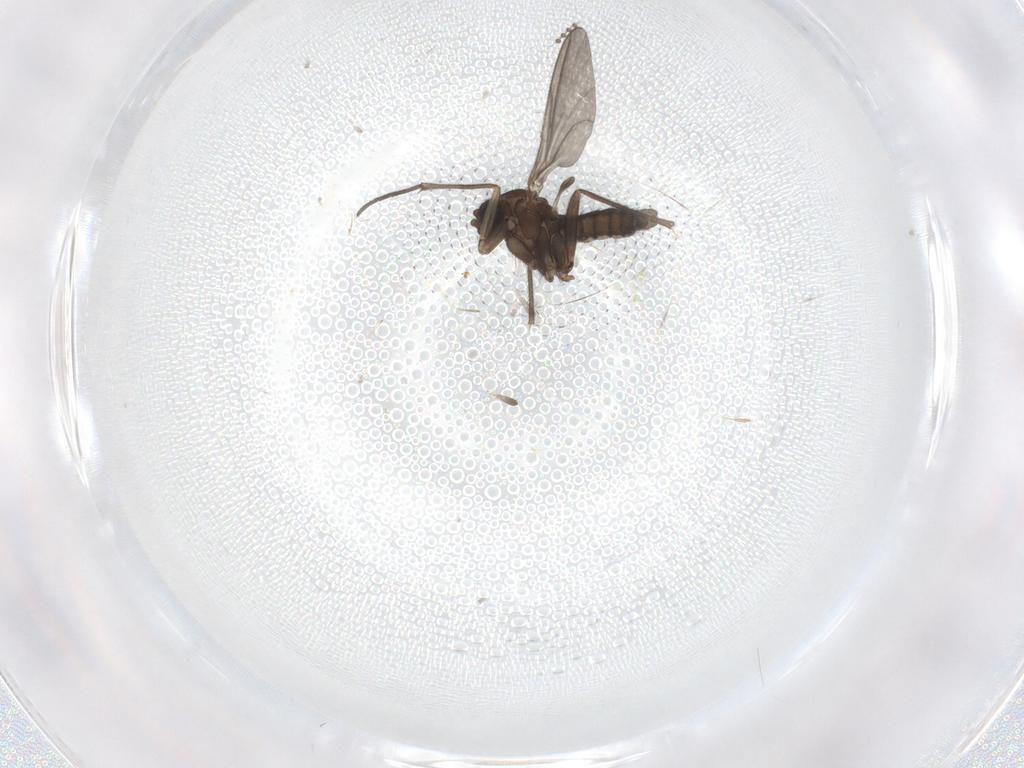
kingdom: Animalia
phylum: Arthropoda
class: Insecta
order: Diptera
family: Sciaridae
